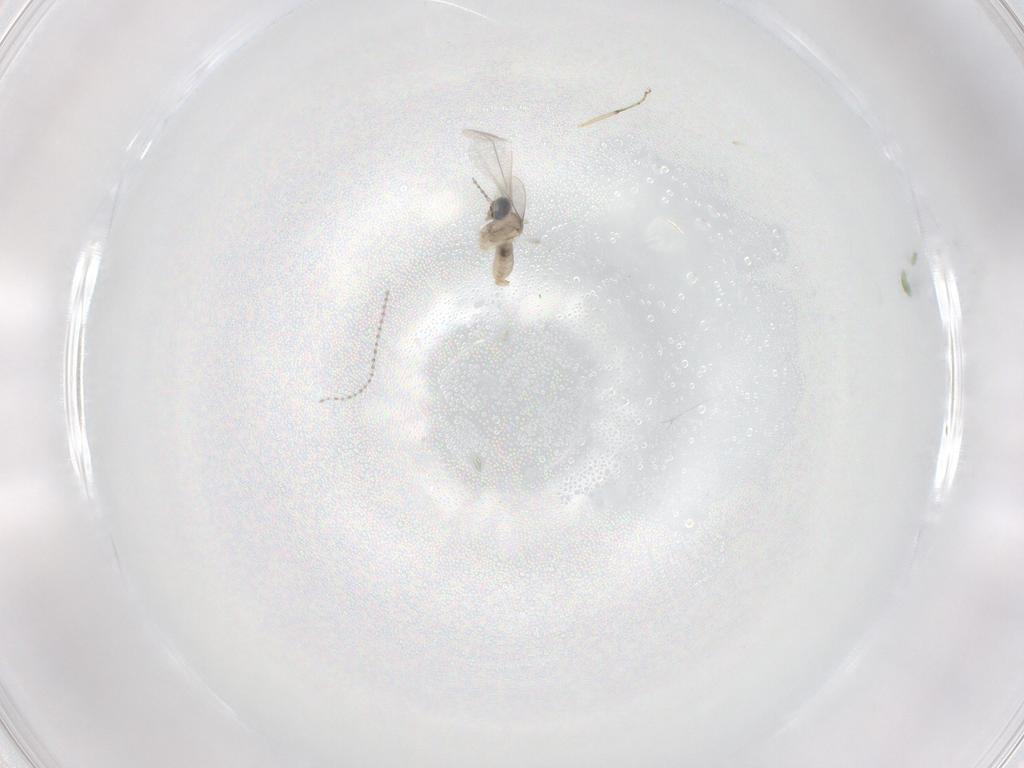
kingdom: Animalia
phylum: Arthropoda
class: Insecta
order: Diptera
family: Cecidomyiidae
